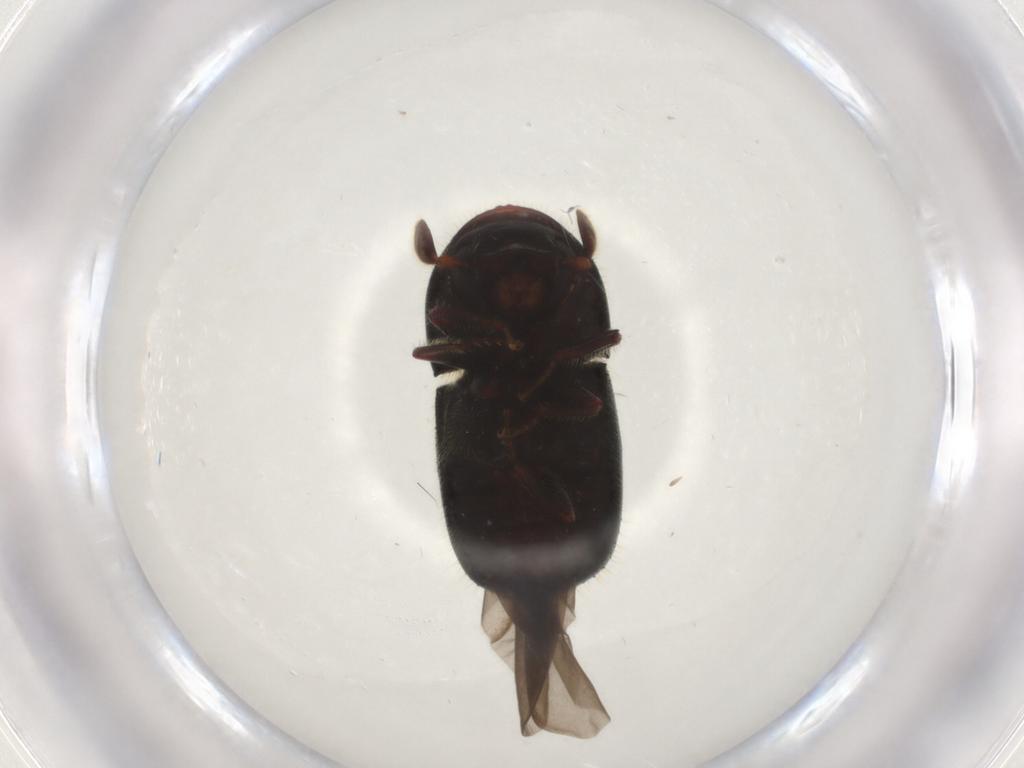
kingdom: Animalia
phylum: Arthropoda
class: Insecta
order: Coleoptera
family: Curculionidae
